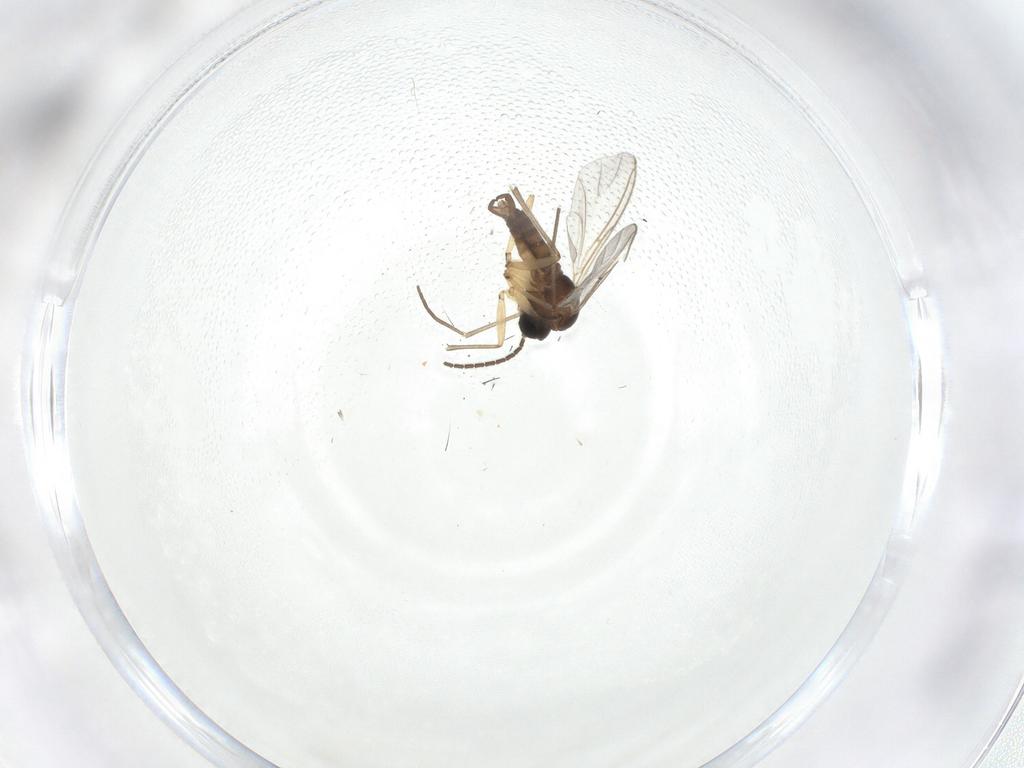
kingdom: Animalia
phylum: Arthropoda
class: Insecta
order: Diptera
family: Sciaridae
